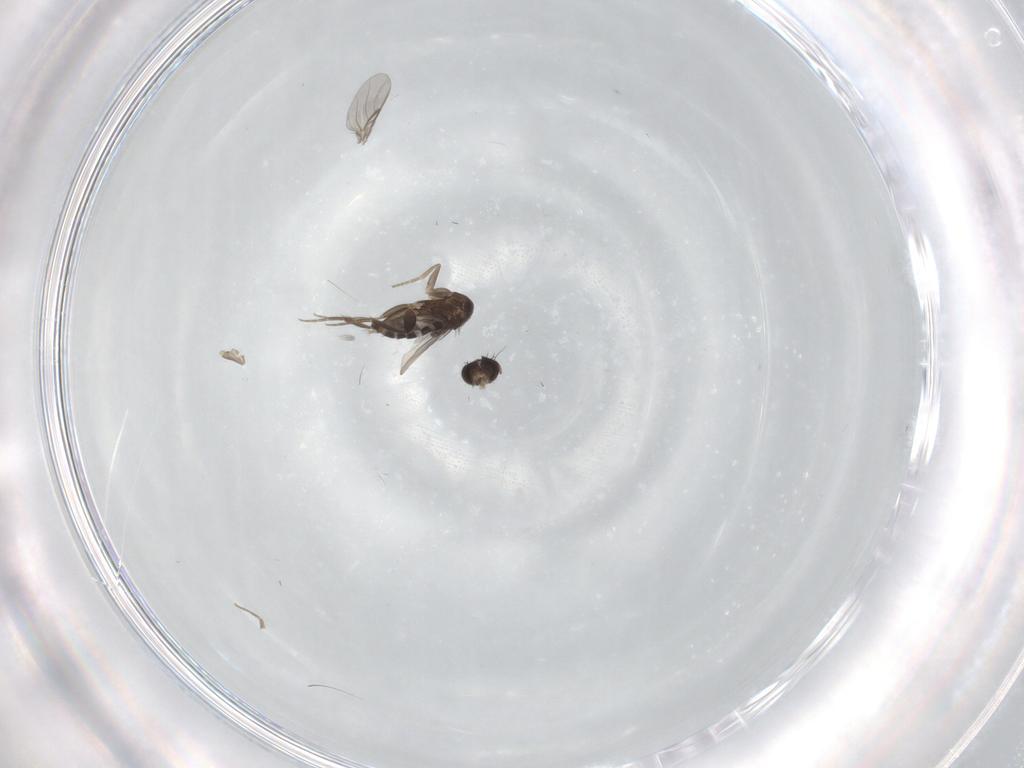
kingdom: Animalia
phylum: Arthropoda
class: Insecta
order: Diptera
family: Phoridae
